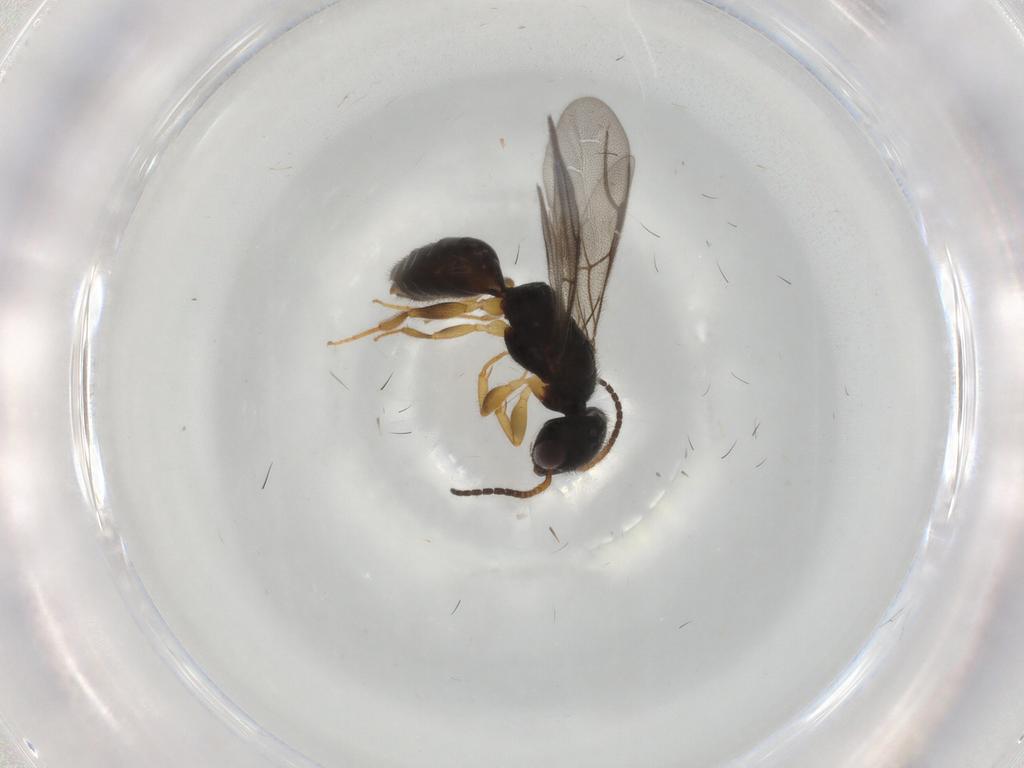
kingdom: Animalia
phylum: Arthropoda
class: Insecta
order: Hymenoptera
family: Bethylidae
